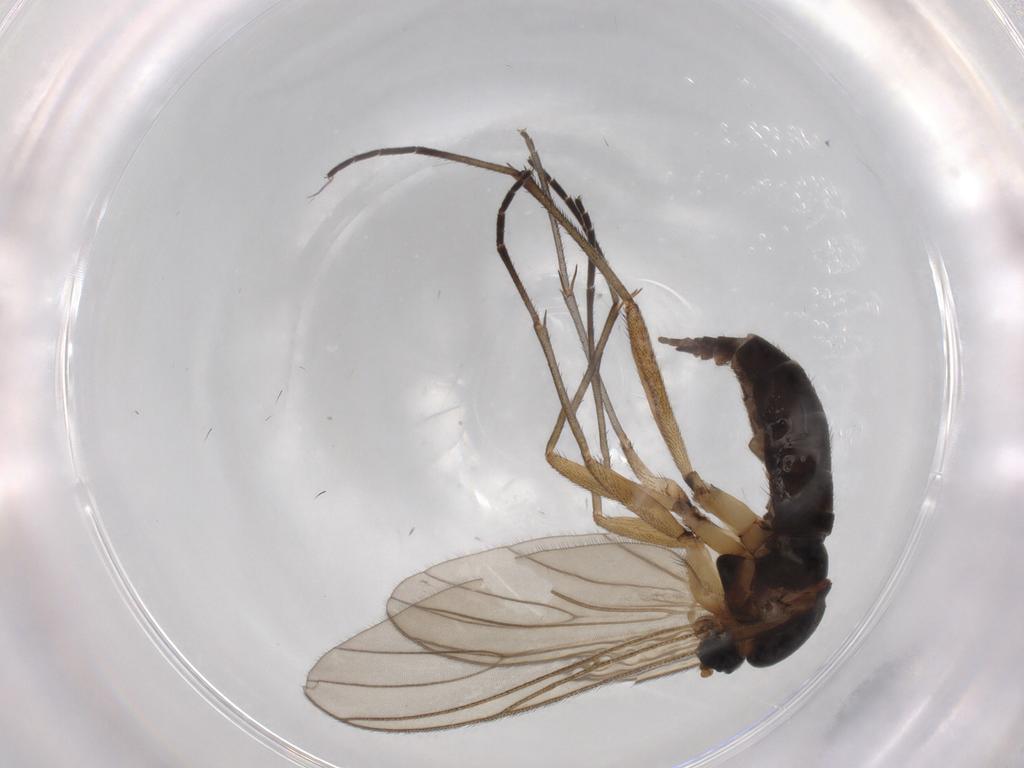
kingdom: Animalia
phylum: Arthropoda
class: Insecta
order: Diptera
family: Sciaridae
